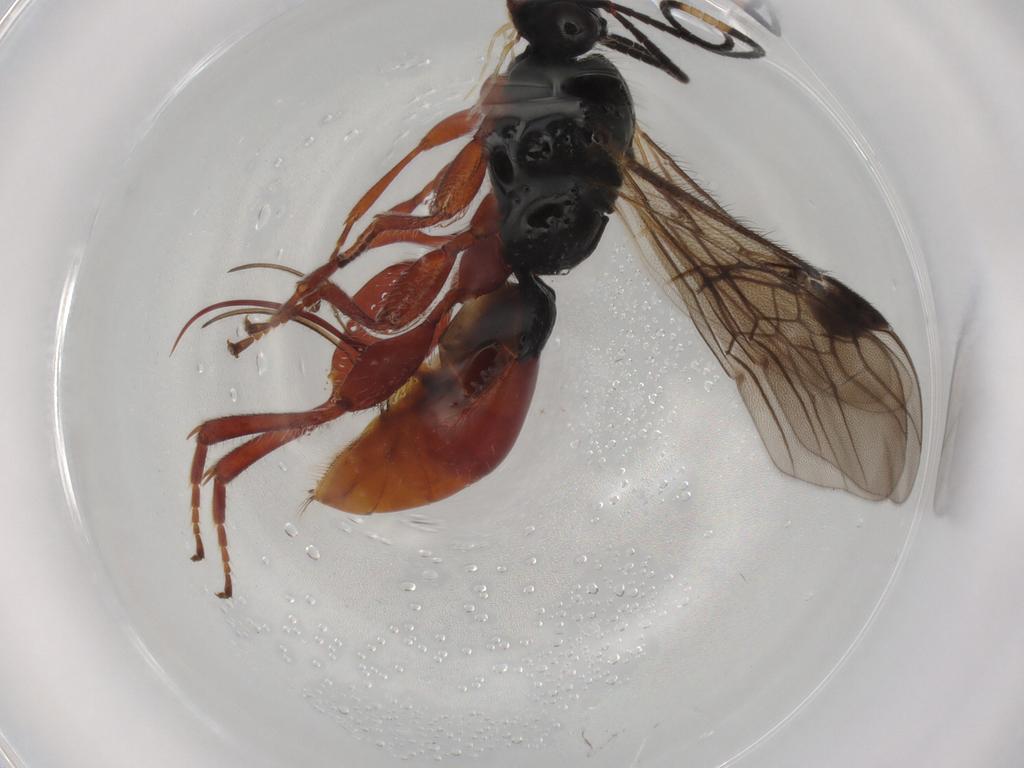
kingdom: Animalia
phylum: Arthropoda
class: Insecta
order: Hymenoptera
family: Braconidae
